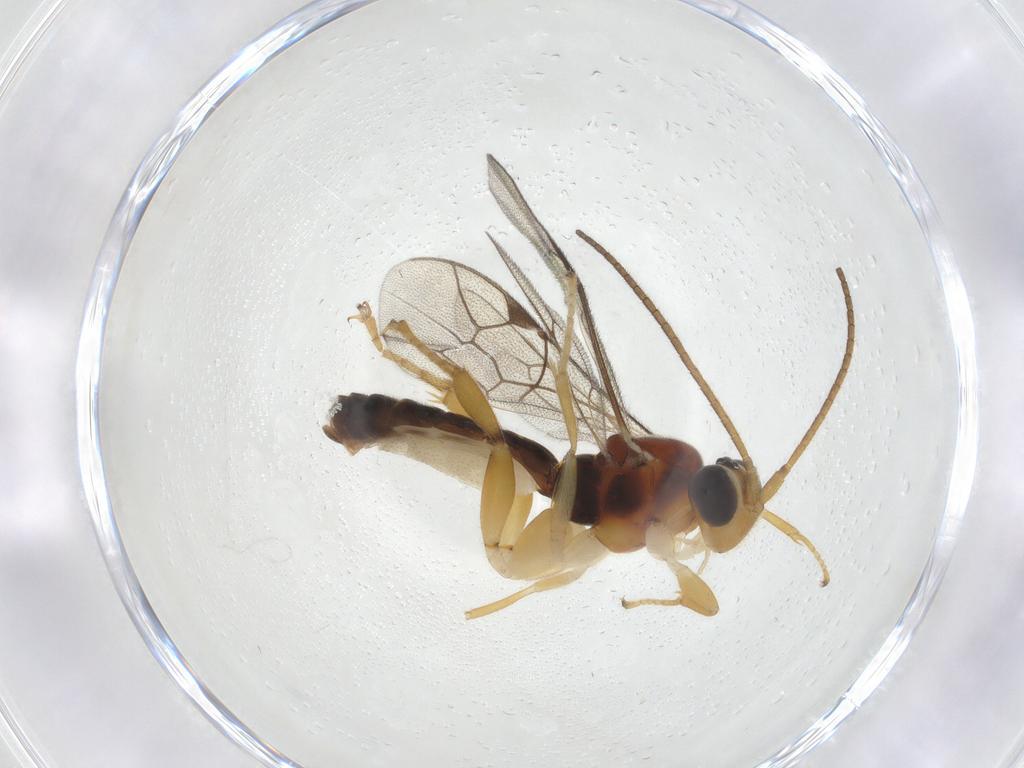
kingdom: Animalia
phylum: Arthropoda
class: Insecta
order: Hymenoptera
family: Ichneumonidae
